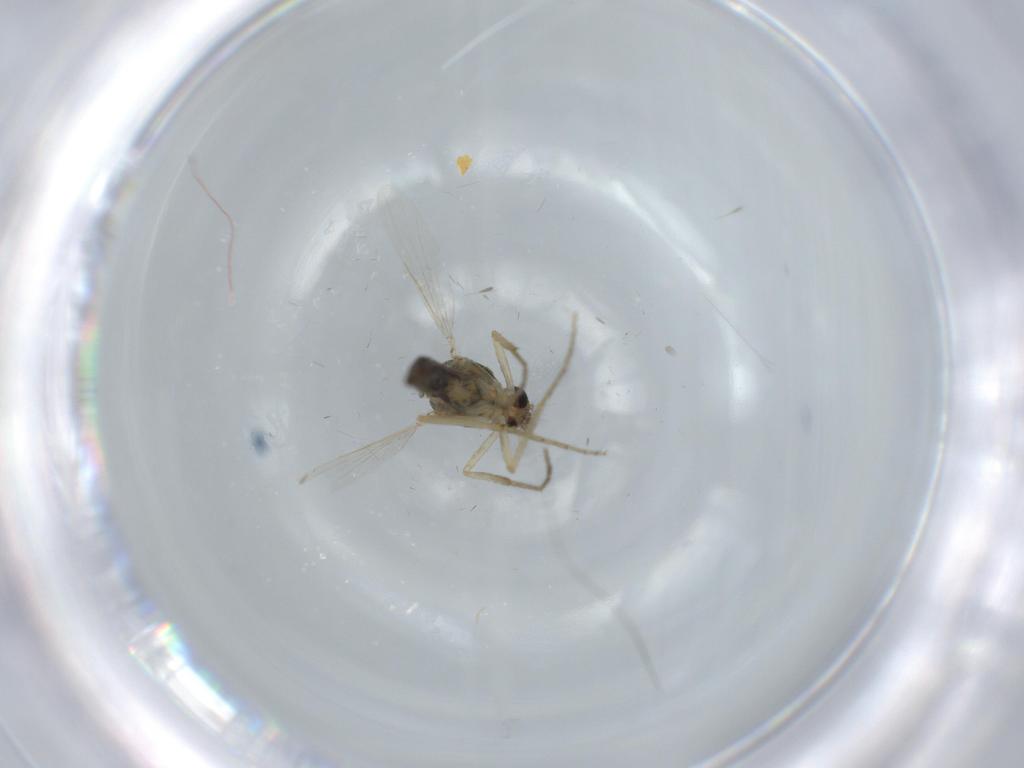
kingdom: Animalia
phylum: Arthropoda
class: Insecta
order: Diptera
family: Ceratopogonidae
